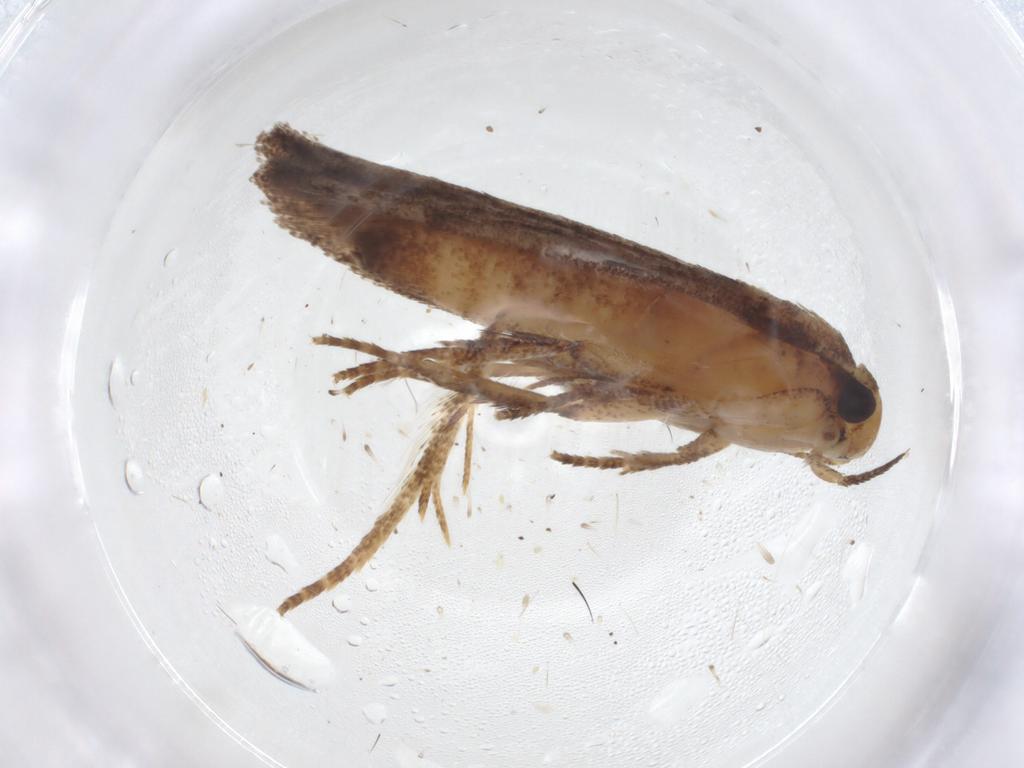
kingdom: Animalia
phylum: Arthropoda
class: Insecta
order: Lepidoptera
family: Gelechiidae
